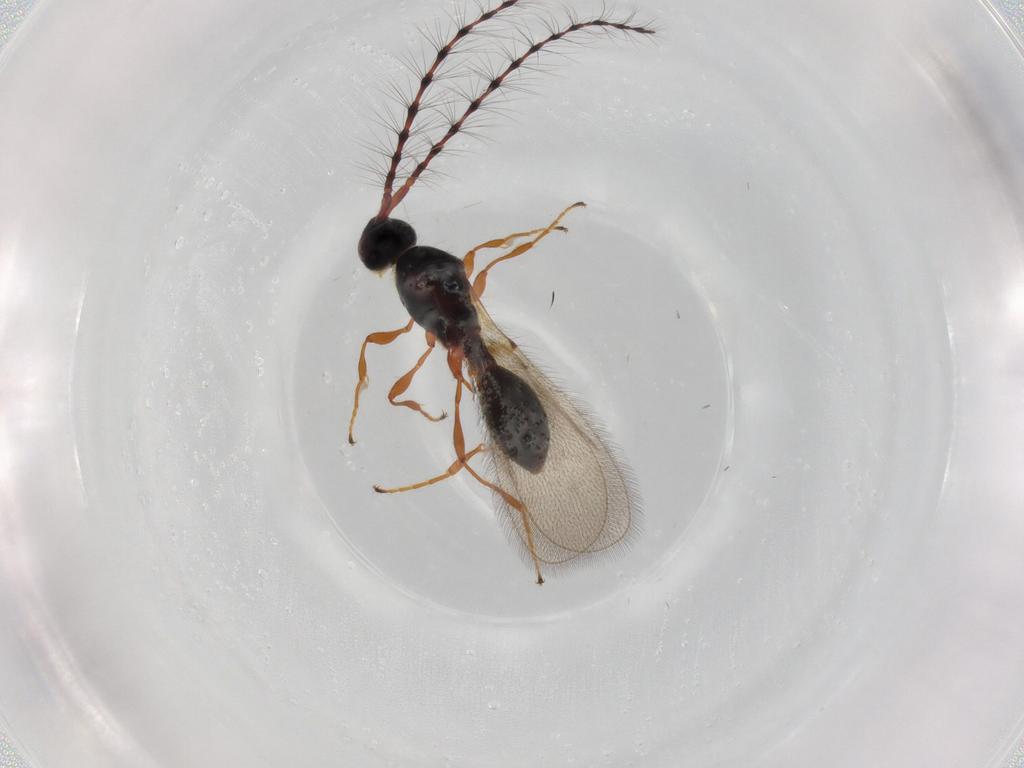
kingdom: Animalia
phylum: Arthropoda
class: Insecta
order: Hymenoptera
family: Diapriidae
